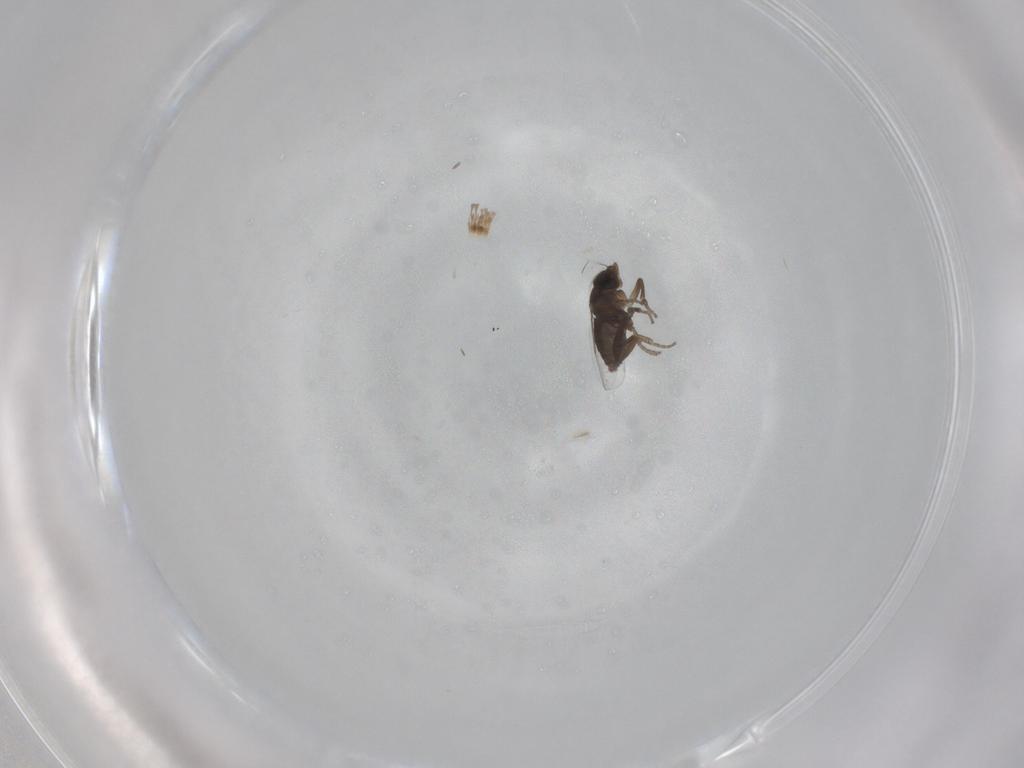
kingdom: Animalia
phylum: Arthropoda
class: Insecta
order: Diptera
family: Phoridae
